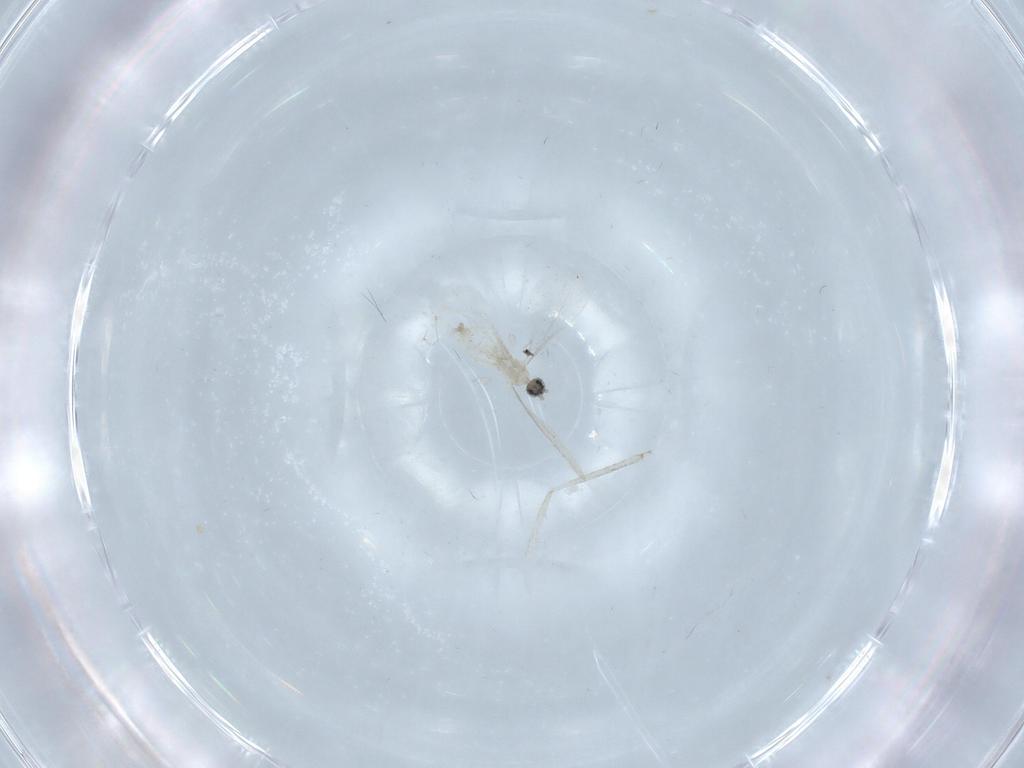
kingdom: Animalia
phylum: Arthropoda
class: Insecta
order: Diptera
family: Cecidomyiidae
